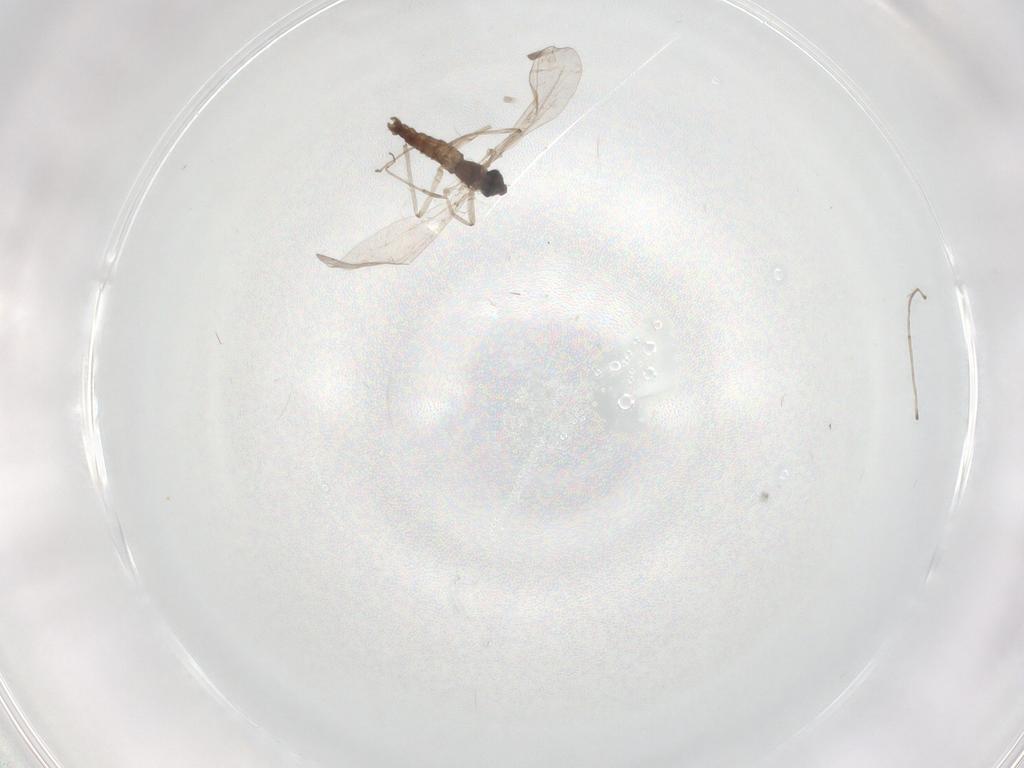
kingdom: Animalia
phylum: Arthropoda
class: Insecta
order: Diptera
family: Chironomidae
